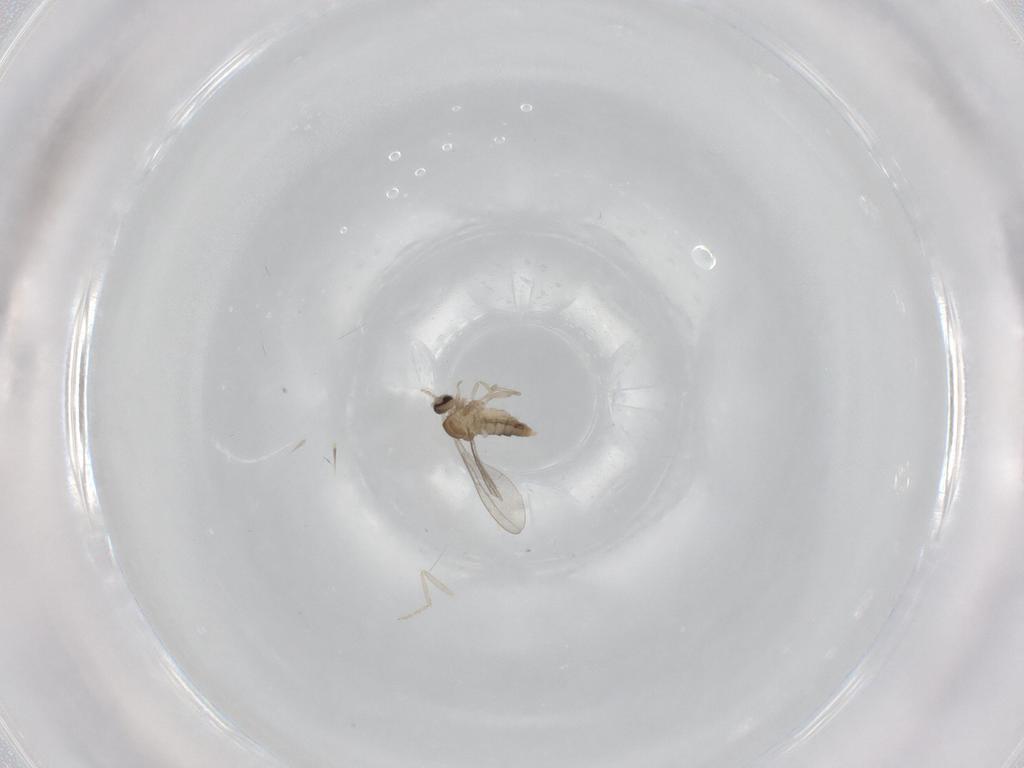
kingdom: Animalia
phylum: Arthropoda
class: Insecta
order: Diptera
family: Cecidomyiidae
